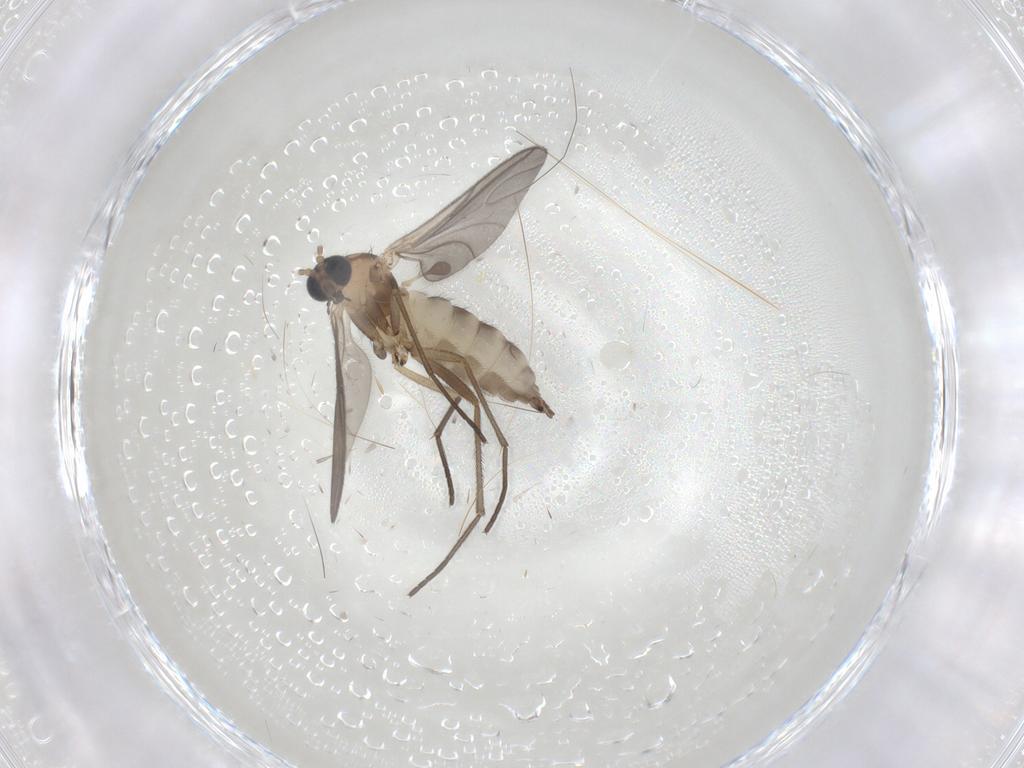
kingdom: Animalia
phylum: Arthropoda
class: Insecta
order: Diptera
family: Sciaridae
